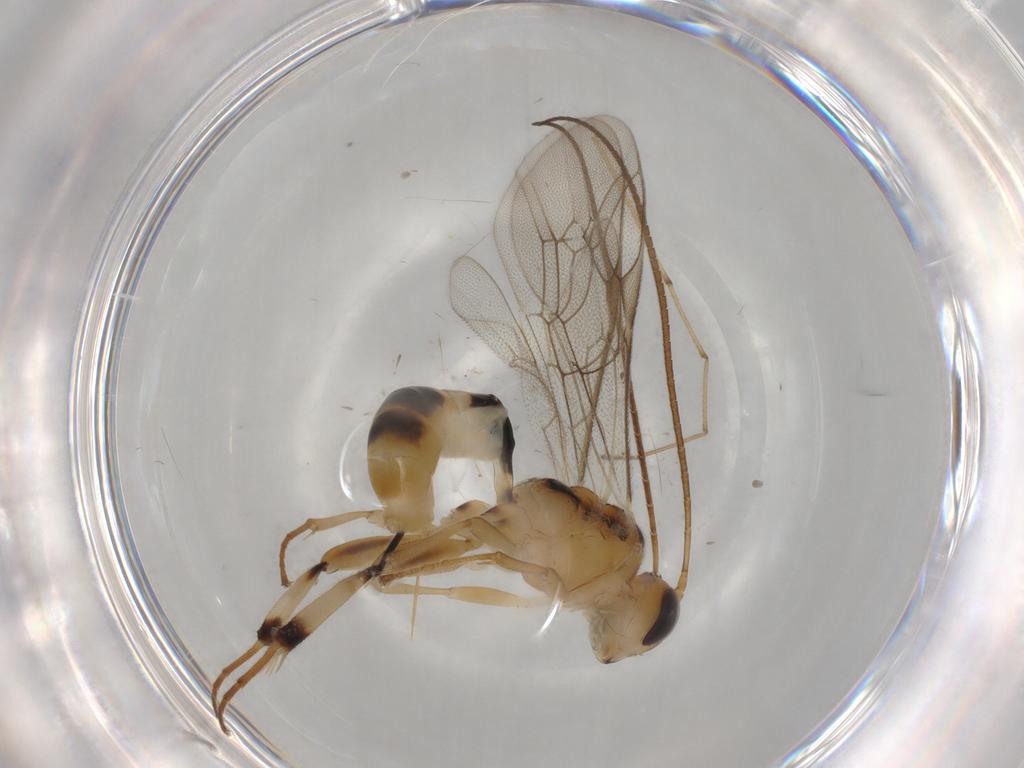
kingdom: Animalia
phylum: Arthropoda
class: Insecta
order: Hymenoptera
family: Ichneumonidae
